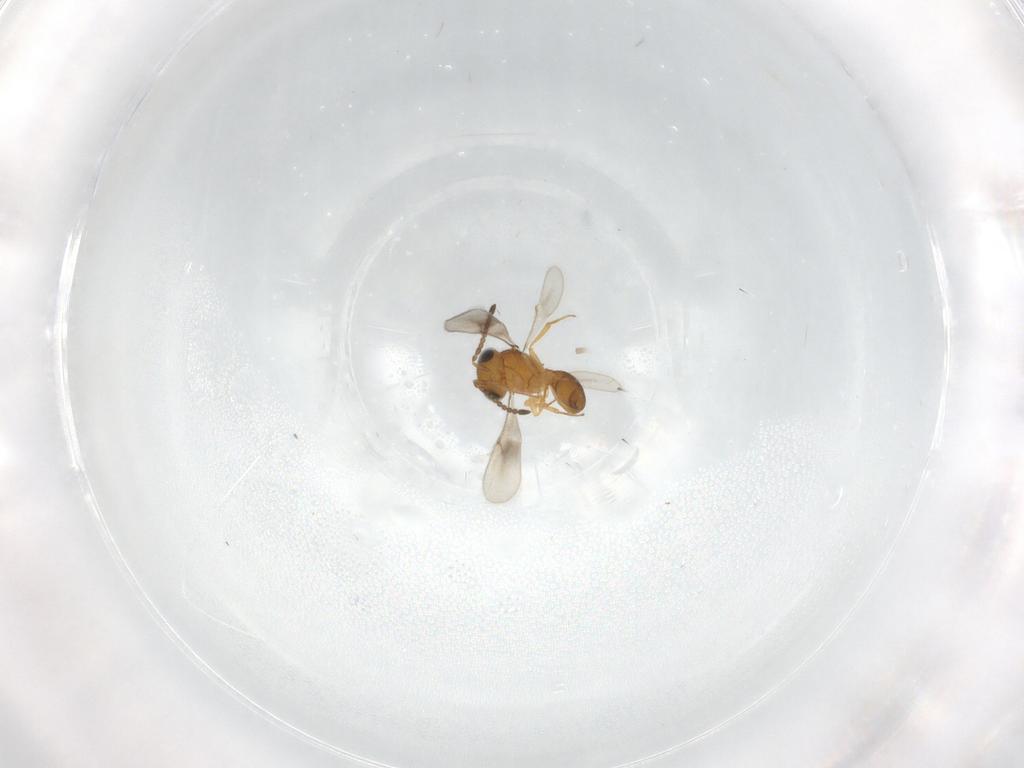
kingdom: Animalia
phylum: Arthropoda
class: Insecta
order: Hymenoptera
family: Scelionidae
